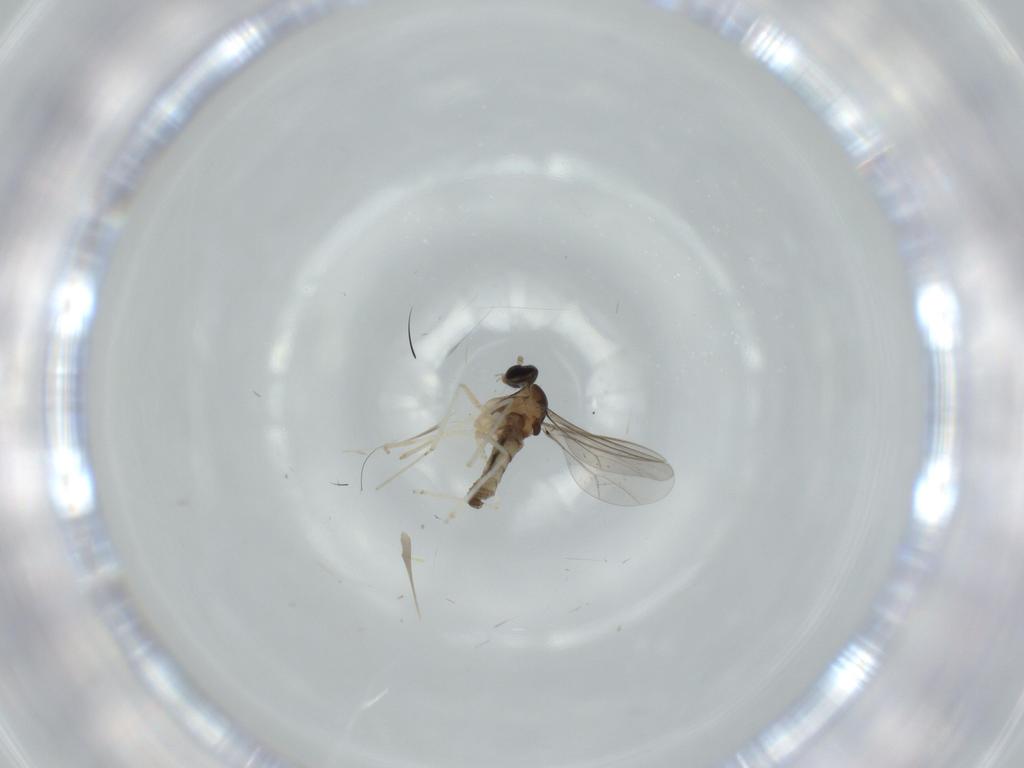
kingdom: Animalia
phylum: Arthropoda
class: Insecta
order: Diptera
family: Cecidomyiidae
